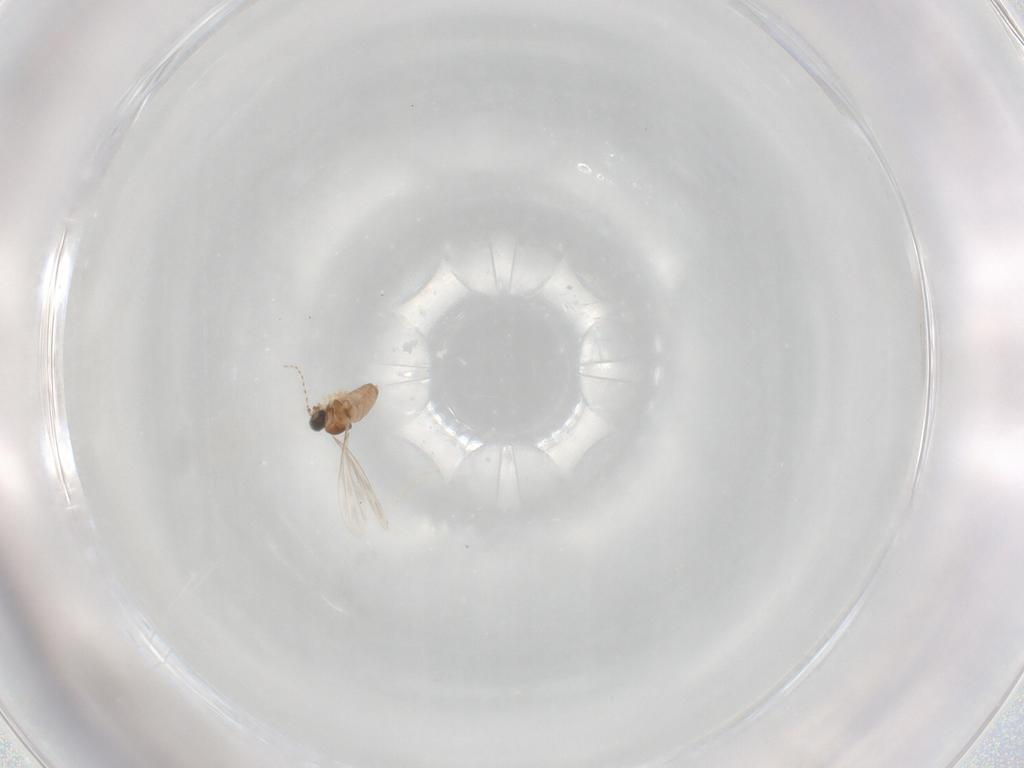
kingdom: Animalia
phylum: Arthropoda
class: Insecta
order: Diptera
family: Cecidomyiidae
